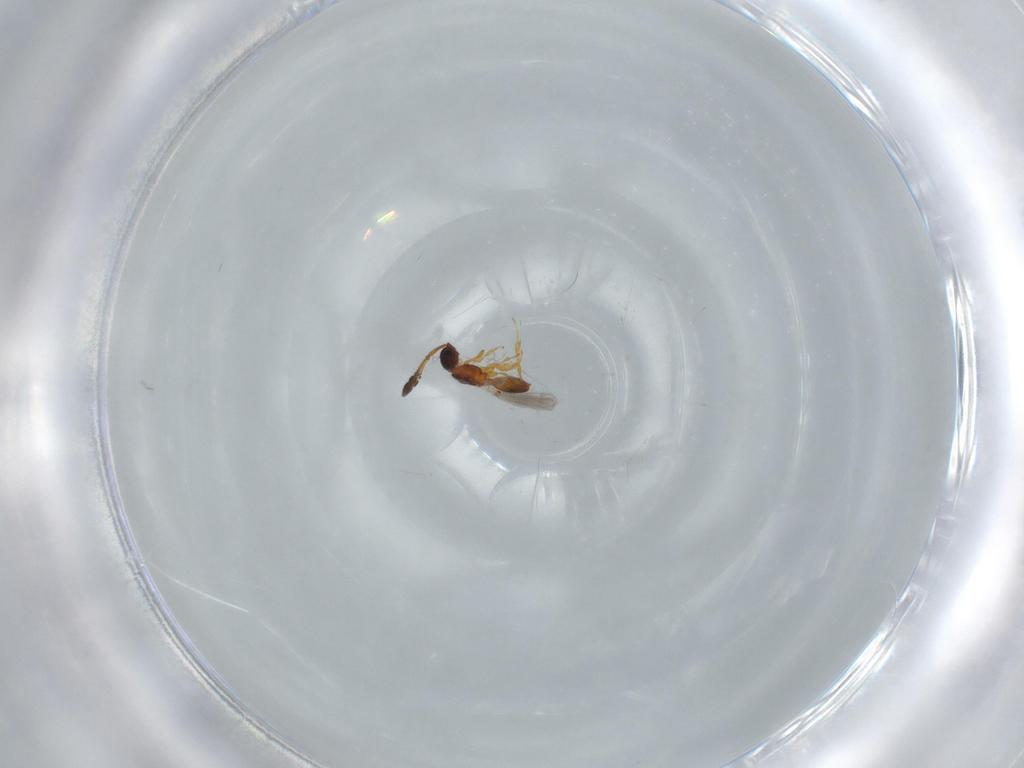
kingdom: Animalia
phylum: Arthropoda
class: Insecta
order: Hymenoptera
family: Diapriidae
